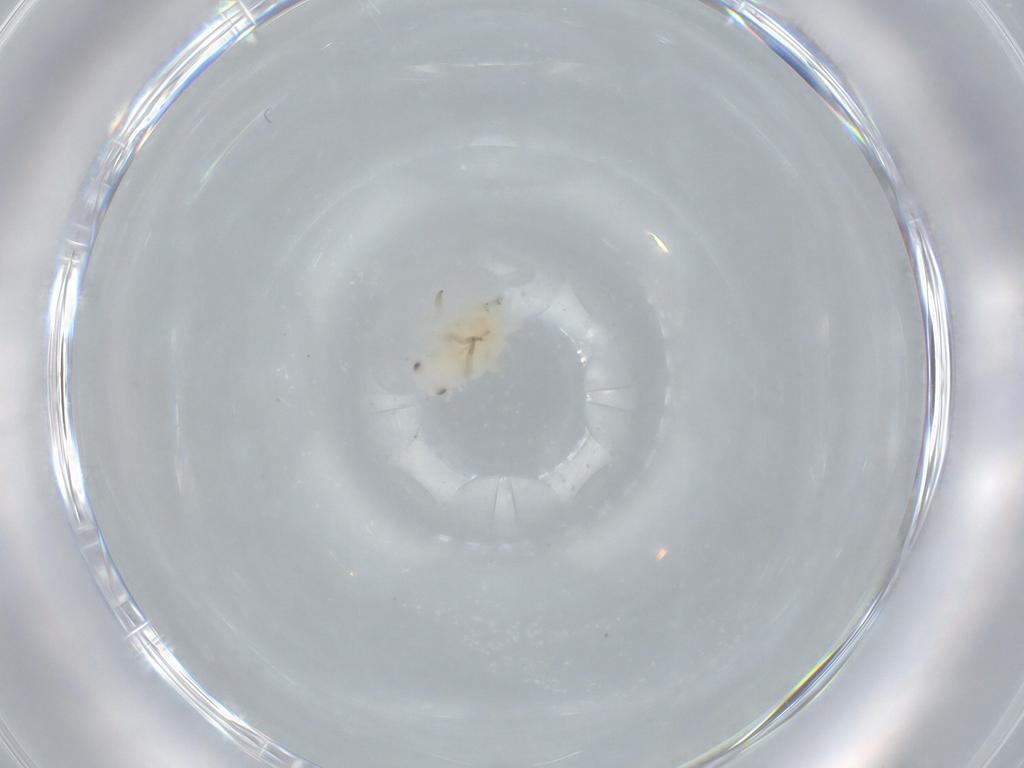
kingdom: Animalia
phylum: Arthropoda
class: Insecta
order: Hemiptera
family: Flatidae
